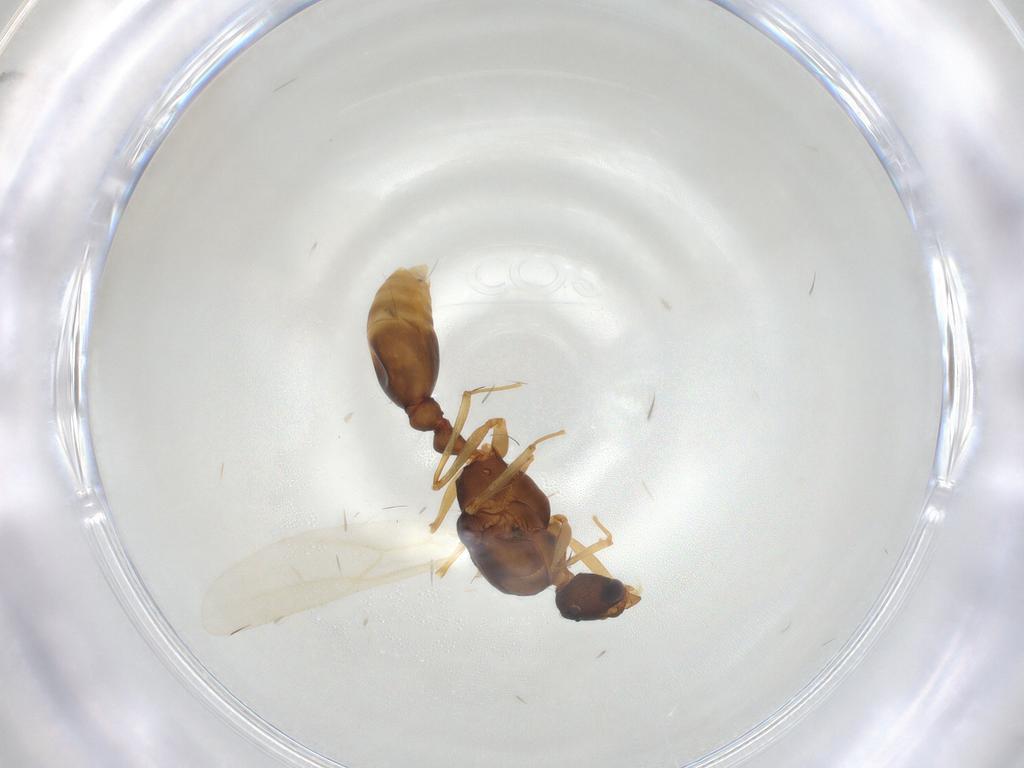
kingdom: Animalia
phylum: Arthropoda
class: Insecta
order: Hymenoptera
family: Formicidae
